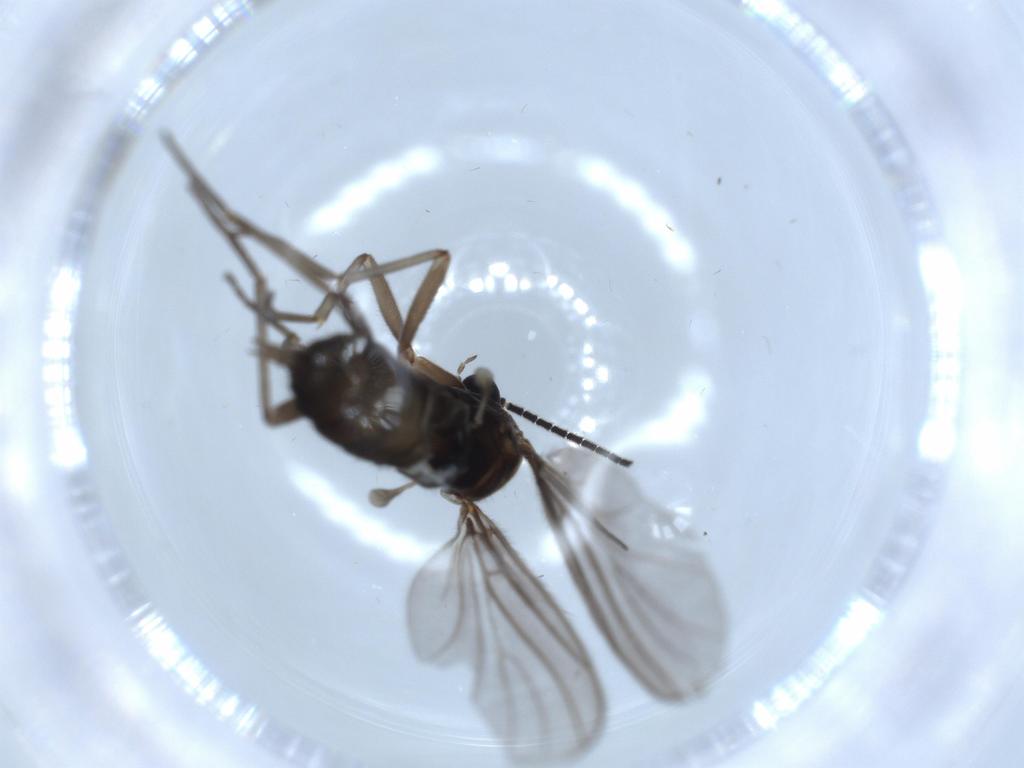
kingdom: Animalia
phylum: Arthropoda
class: Insecta
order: Diptera
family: Sciaridae
